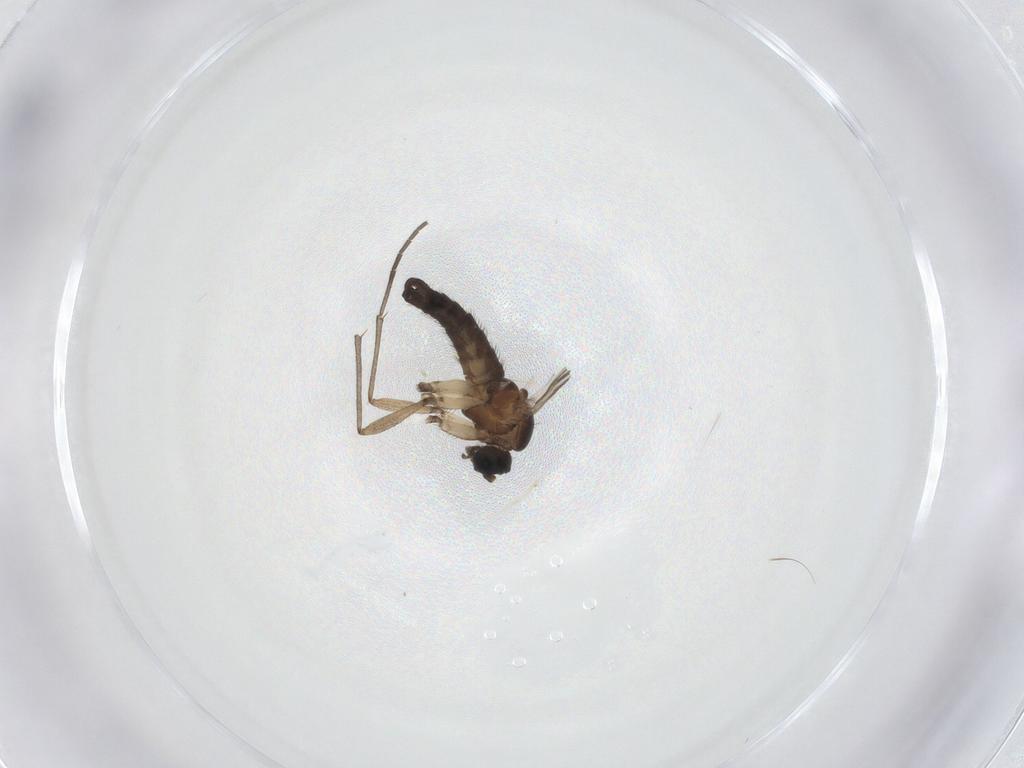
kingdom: Animalia
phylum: Arthropoda
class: Insecta
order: Diptera
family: Sciaridae
